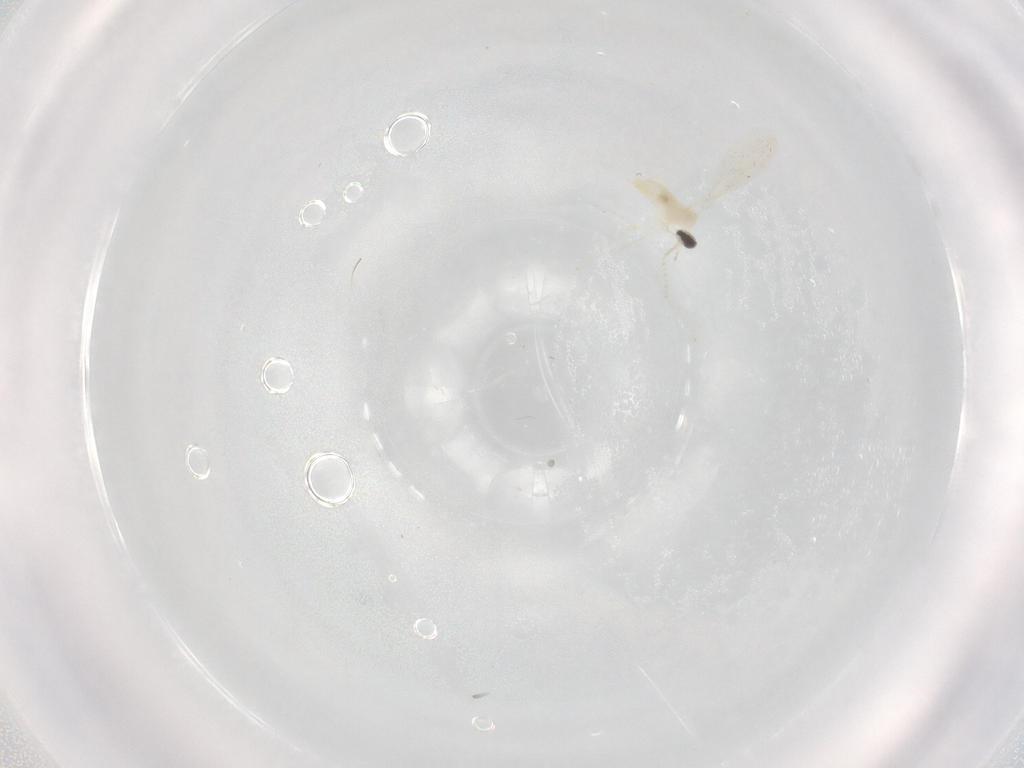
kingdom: Animalia
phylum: Arthropoda
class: Insecta
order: Diptera
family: Cecidomyiidae
